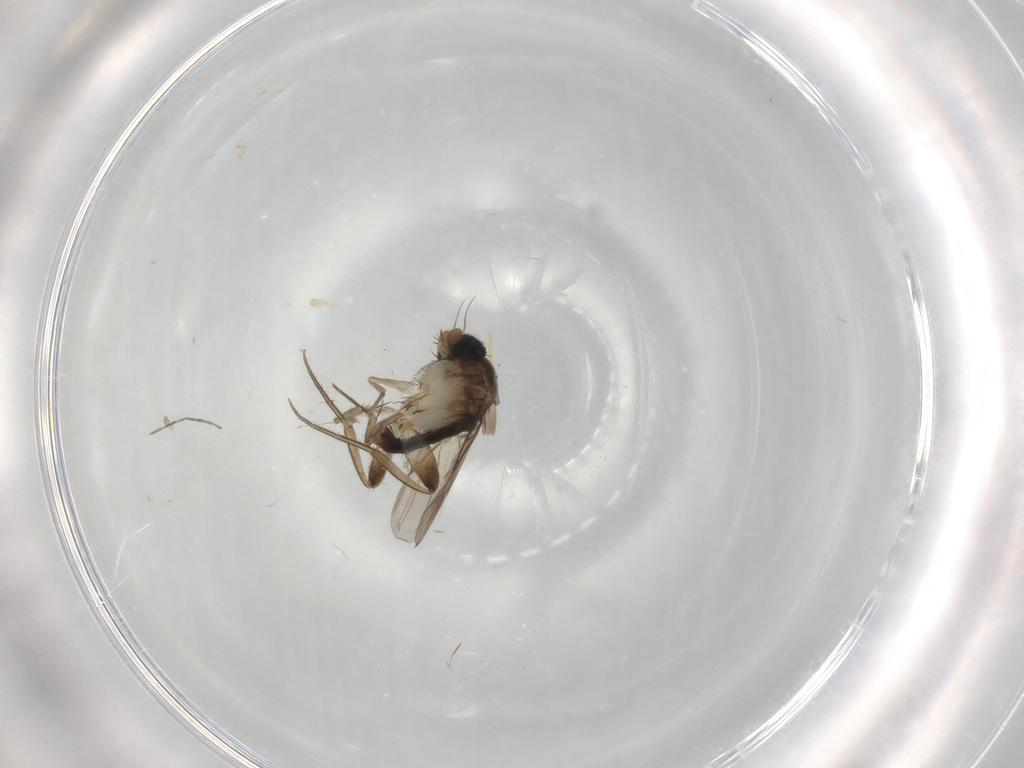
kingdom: Animalia
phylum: Arthropoda
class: Insecta
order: Diptera
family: Phoridae
